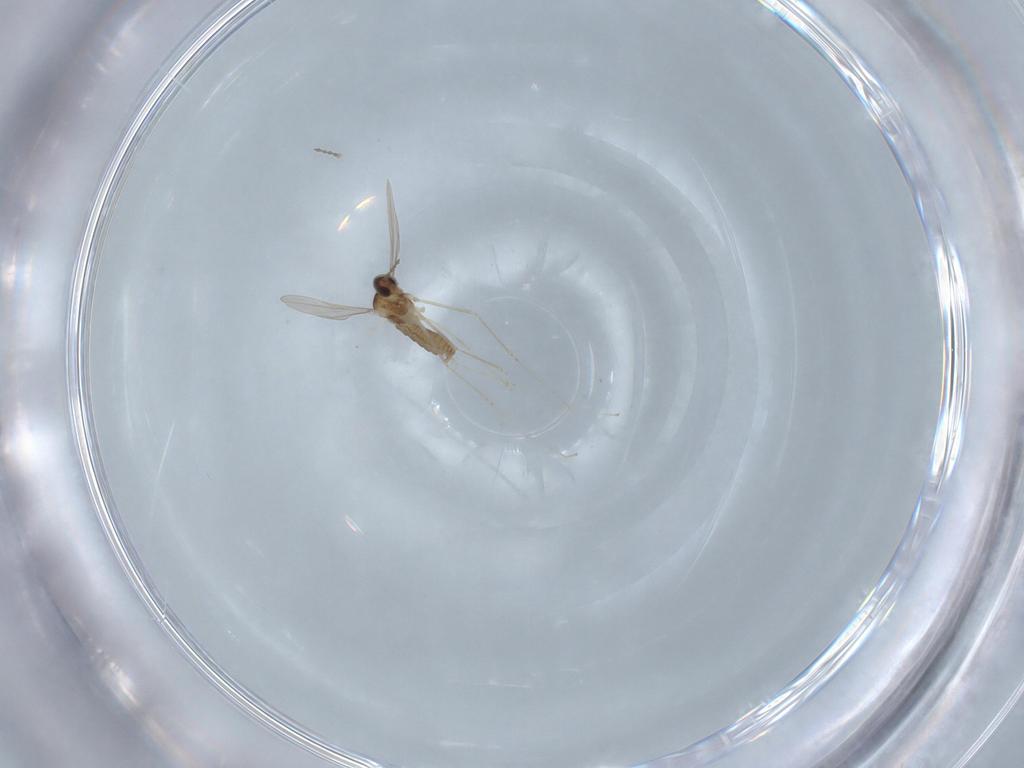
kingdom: Animalia
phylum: Arthropoda
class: Insecta
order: Diptera
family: Cecidomyiidae
